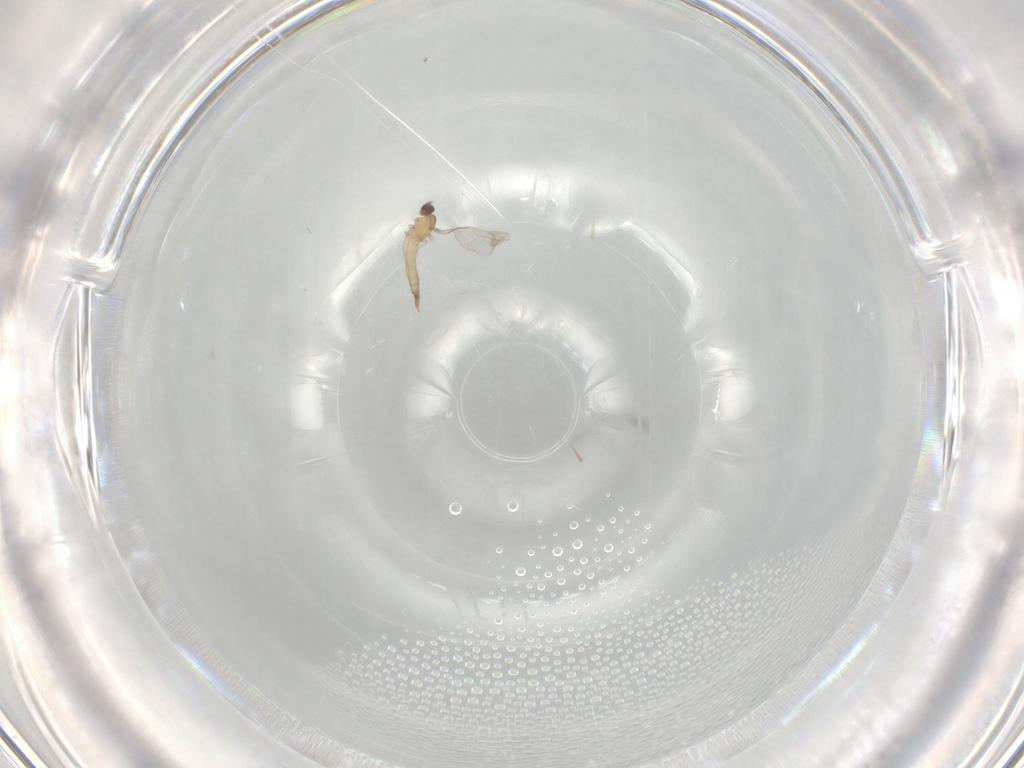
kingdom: Animalia
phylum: Arthropoda
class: Insecta
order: Diptera
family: Cecidomyiidae
